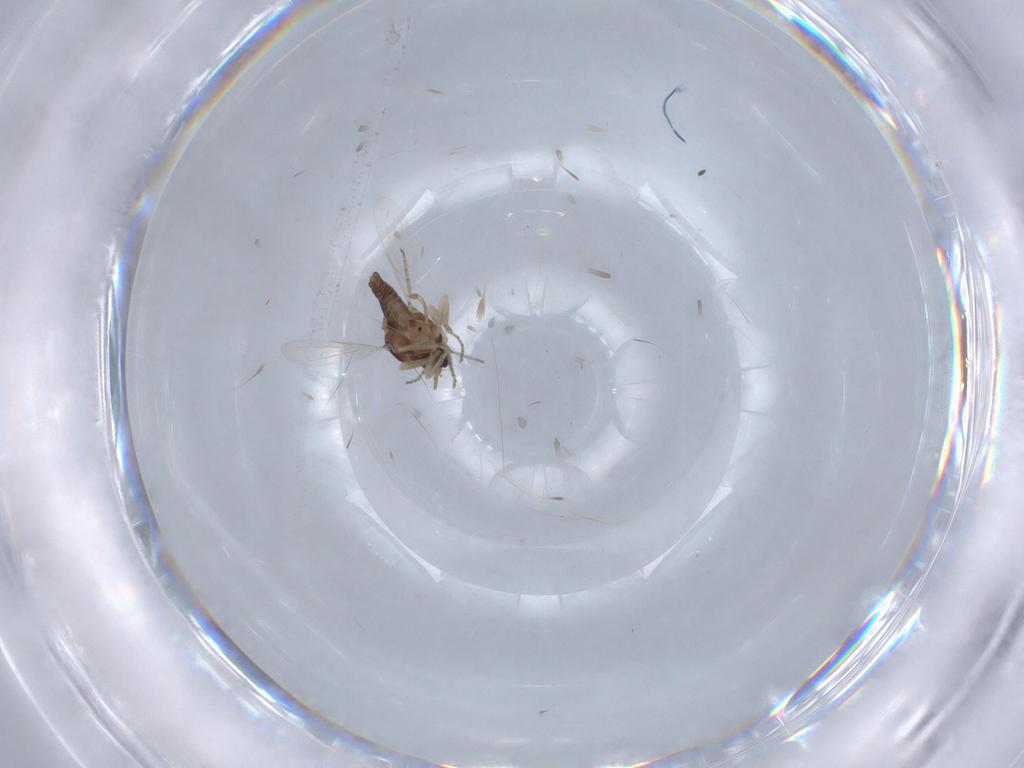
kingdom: Animalia
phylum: Arthropoda
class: Insecta
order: Diptera
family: Ceratopogonidae
